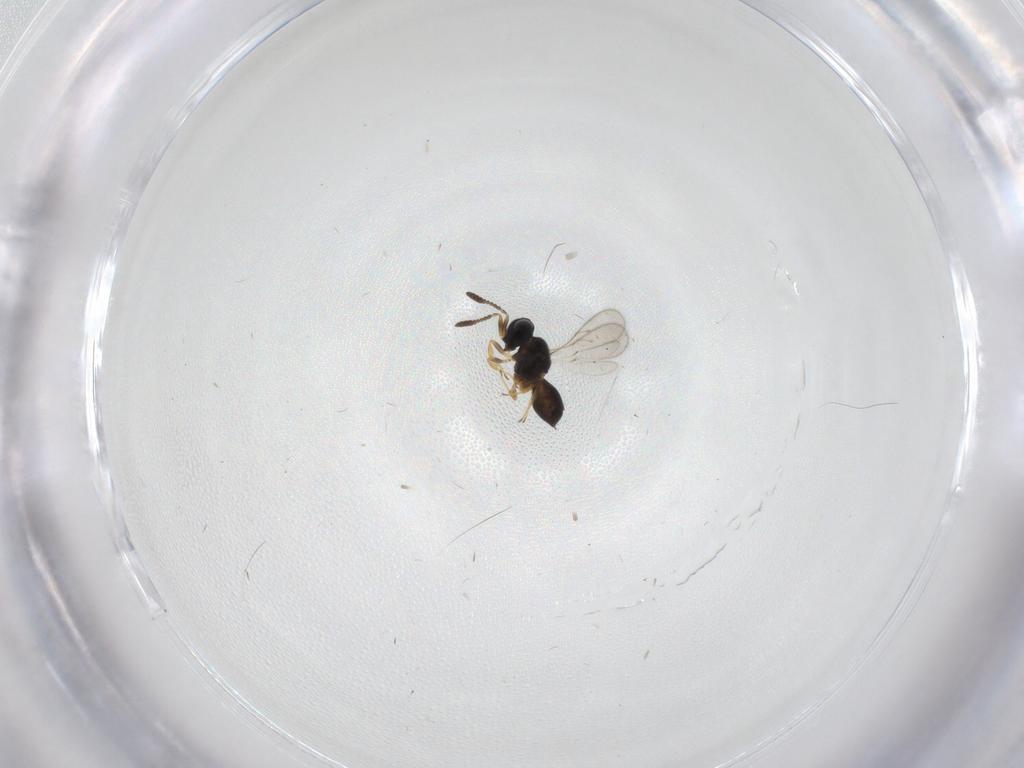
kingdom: Animalia
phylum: Arthropoda
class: Insecta
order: Hymenoptera
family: Scelionidae
